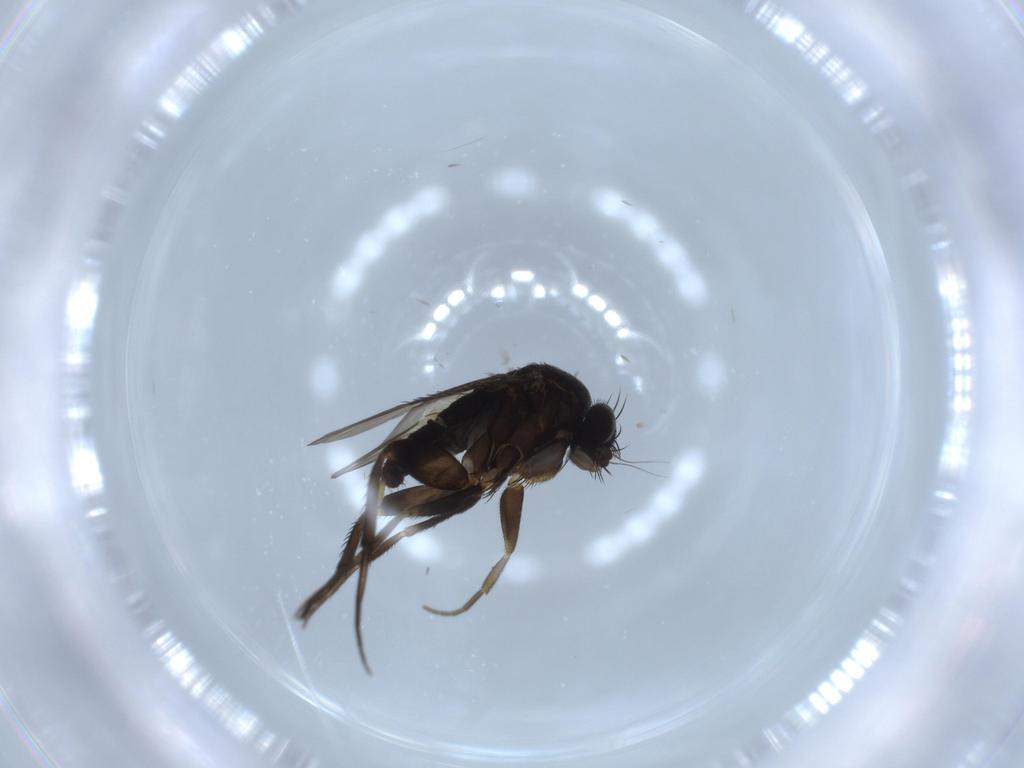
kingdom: Animalia
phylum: Arthropoda
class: Insecta
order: Diptera
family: Phoridae
